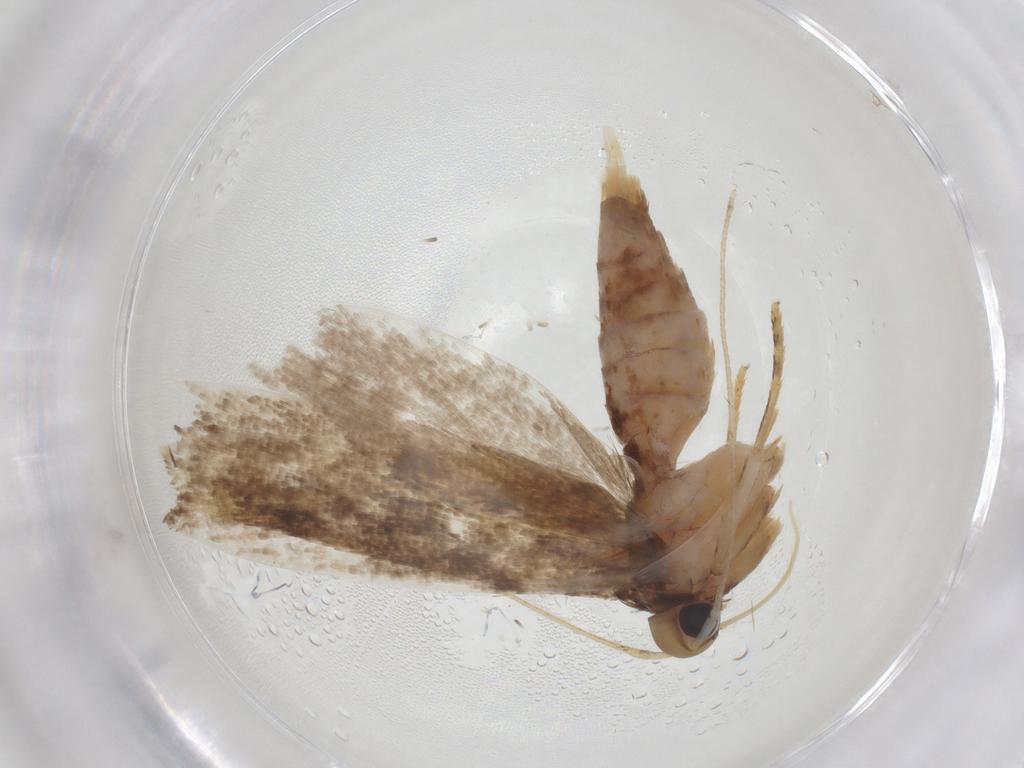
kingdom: Animalia
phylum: Arthropoda
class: Insecta
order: Lepidoptera
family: Gelechiidae
